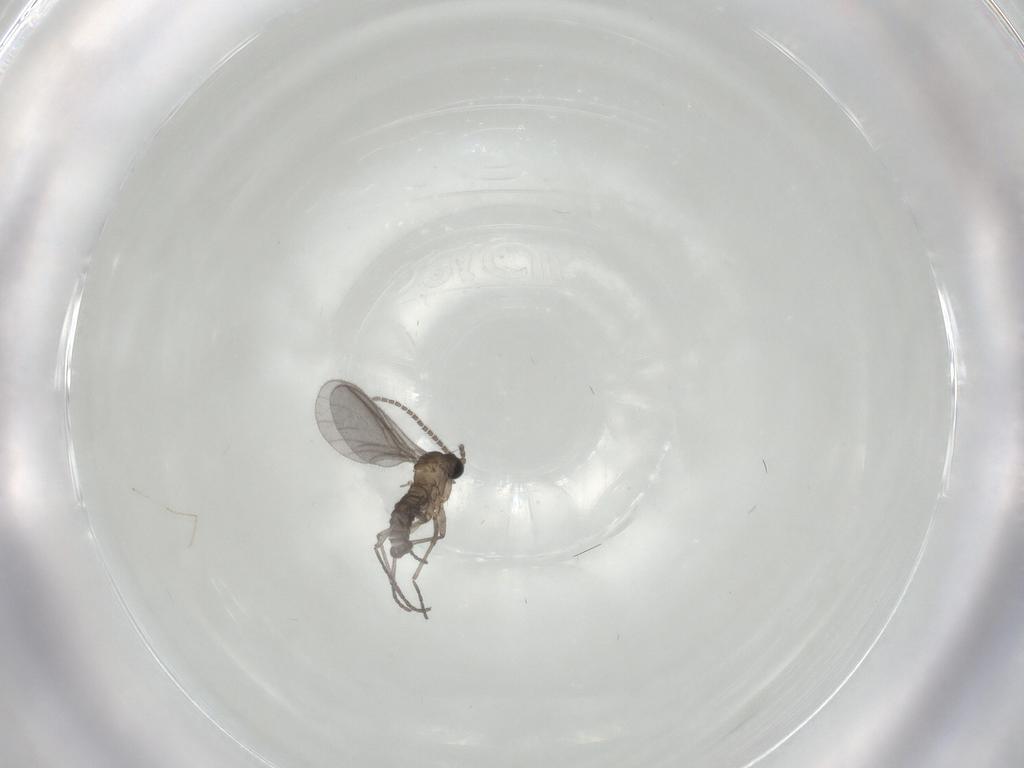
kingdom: Animalia
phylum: Arthropoda
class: Insecta
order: Diptera
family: Sciaridae
